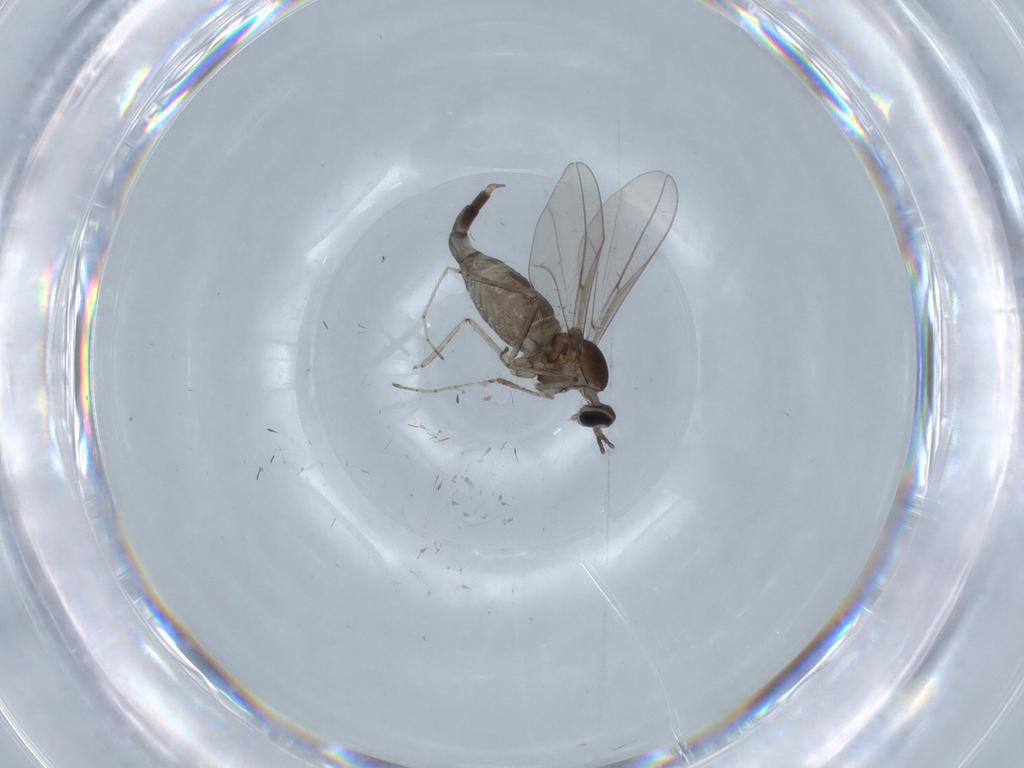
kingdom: Animalia
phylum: Arthropoda
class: Insecta
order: Diptera
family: Cecidomyiidae
